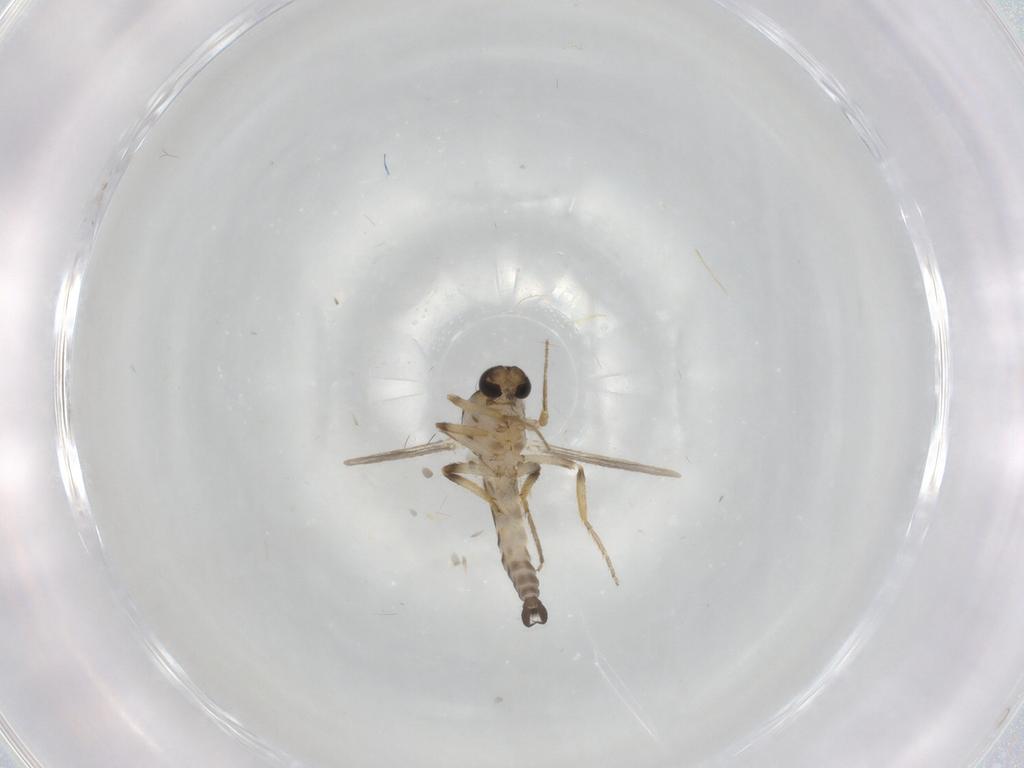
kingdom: Animalia
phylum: Arthropoda
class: Insecta
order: Diptera
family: Ceratopogonidae
